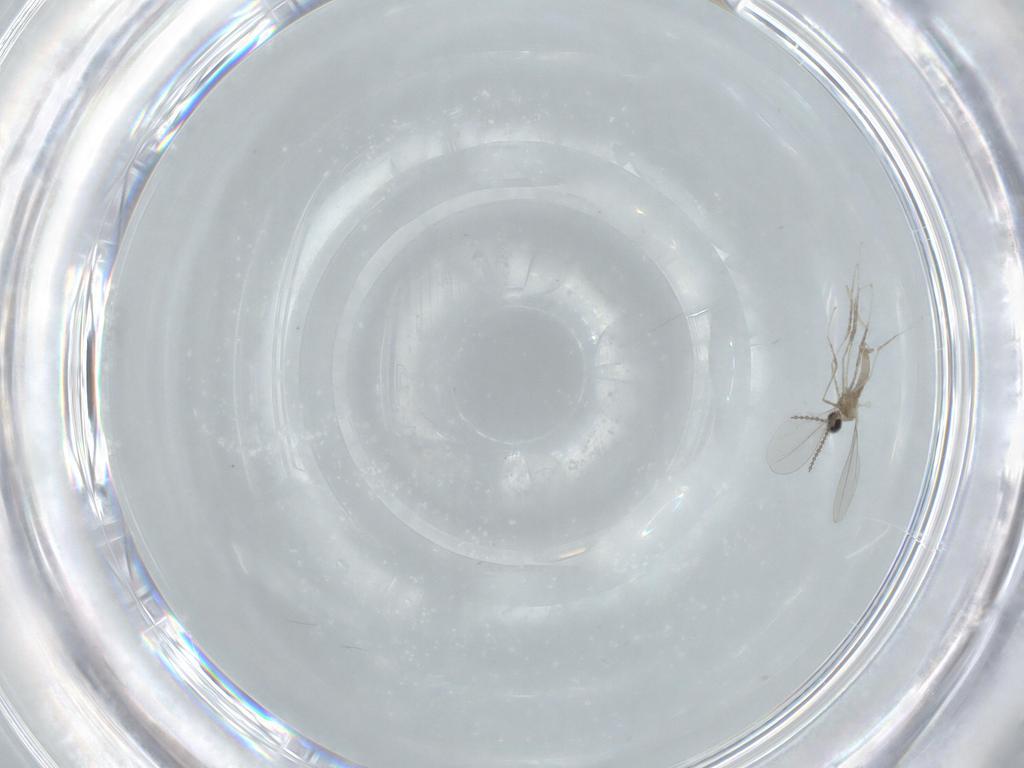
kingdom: Animalia
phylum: Arthropoda
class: Insecta
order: Diptera
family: Chironomidae
